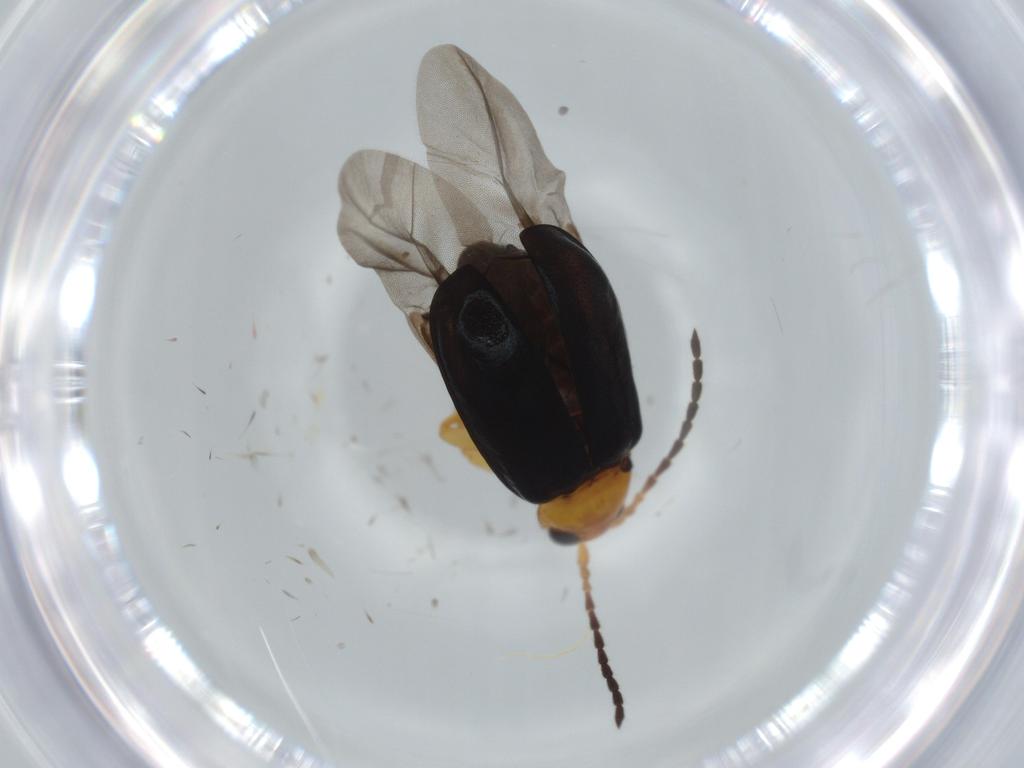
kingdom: Animalia
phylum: Arthropoda
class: Insecta
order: Coleoptera
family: Chrysomelidae
